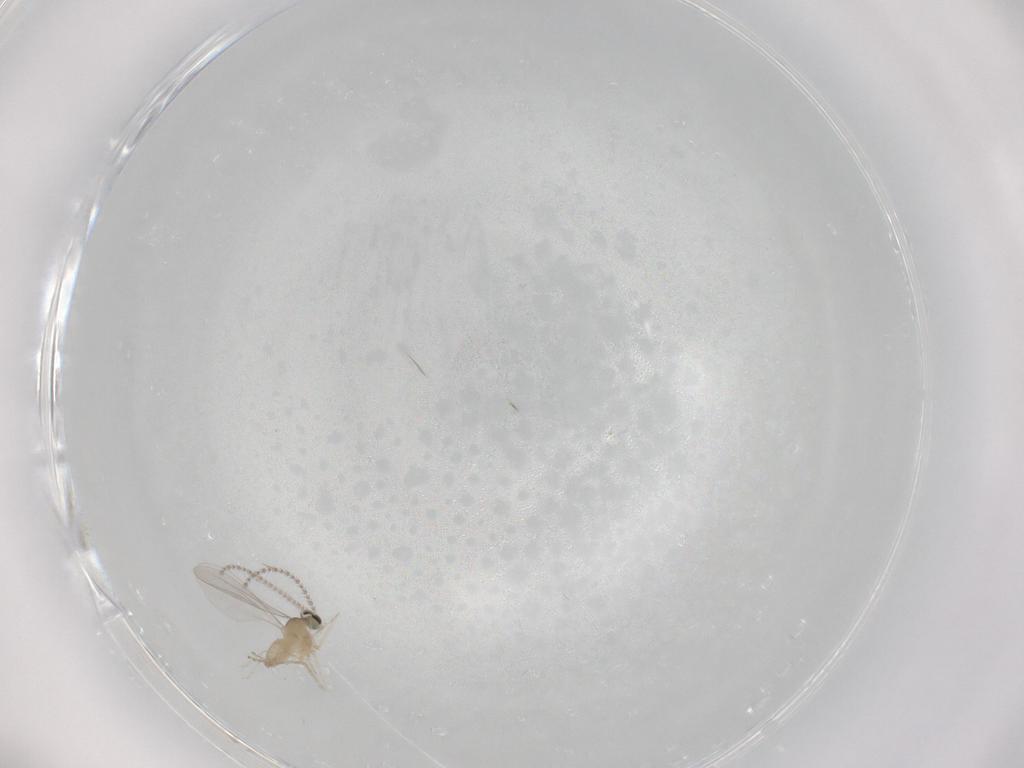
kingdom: Animalia
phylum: Arthropoda
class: Insecta
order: Diptera
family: Cecidomyiidae
